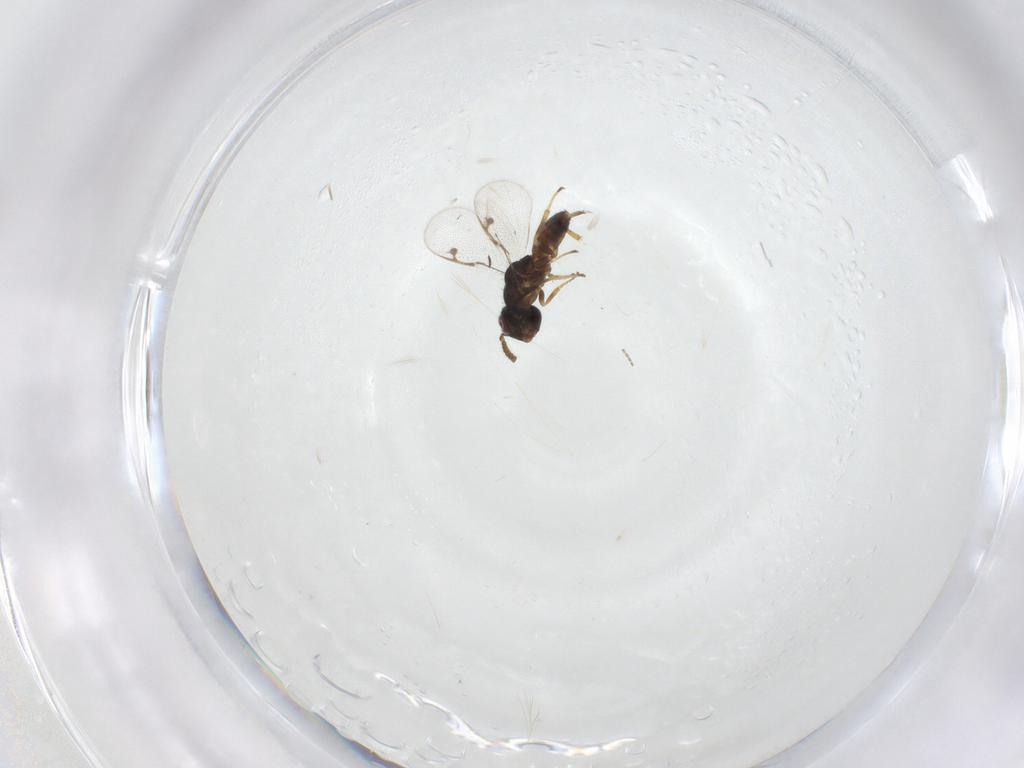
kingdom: Animalia
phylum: Arthropoda
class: Insecta
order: Hymenoptera
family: Pirenidae
